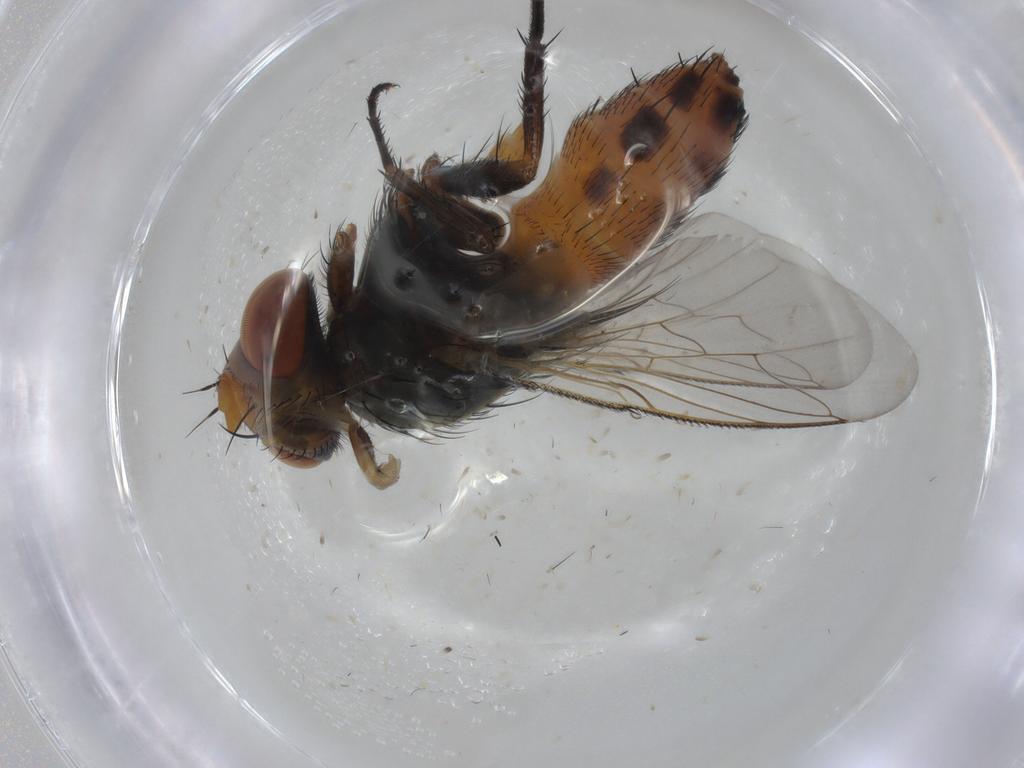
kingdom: Animalia
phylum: Arthropoda
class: Insecta
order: Diptera
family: Sarcophagidae
